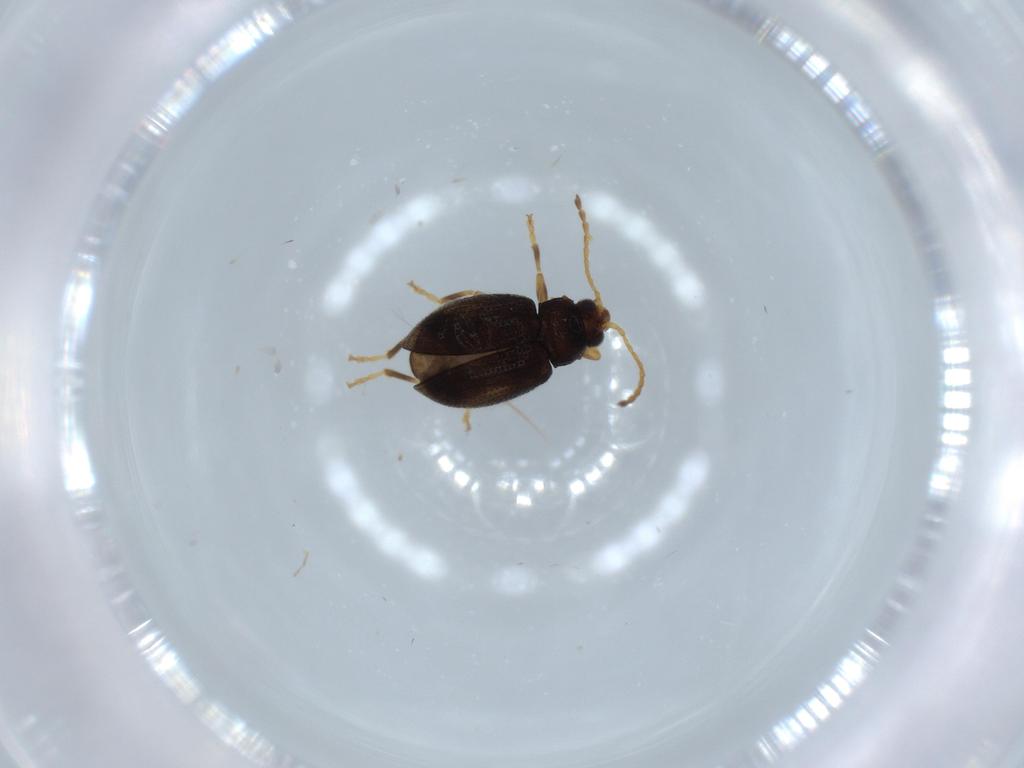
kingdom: Animalia
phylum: Arthropoda
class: Insecta
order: Coleoptera
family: Chrysomelidae
